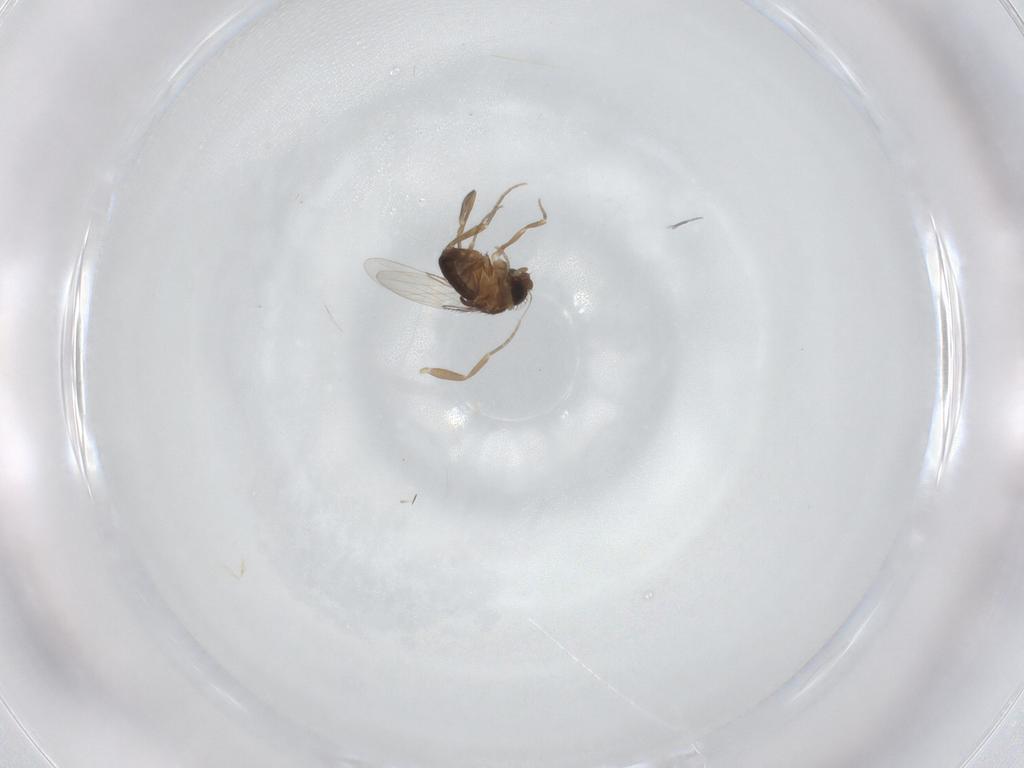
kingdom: Animalia
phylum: Arthropoda
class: Insecta
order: Diptera
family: Phoridae
